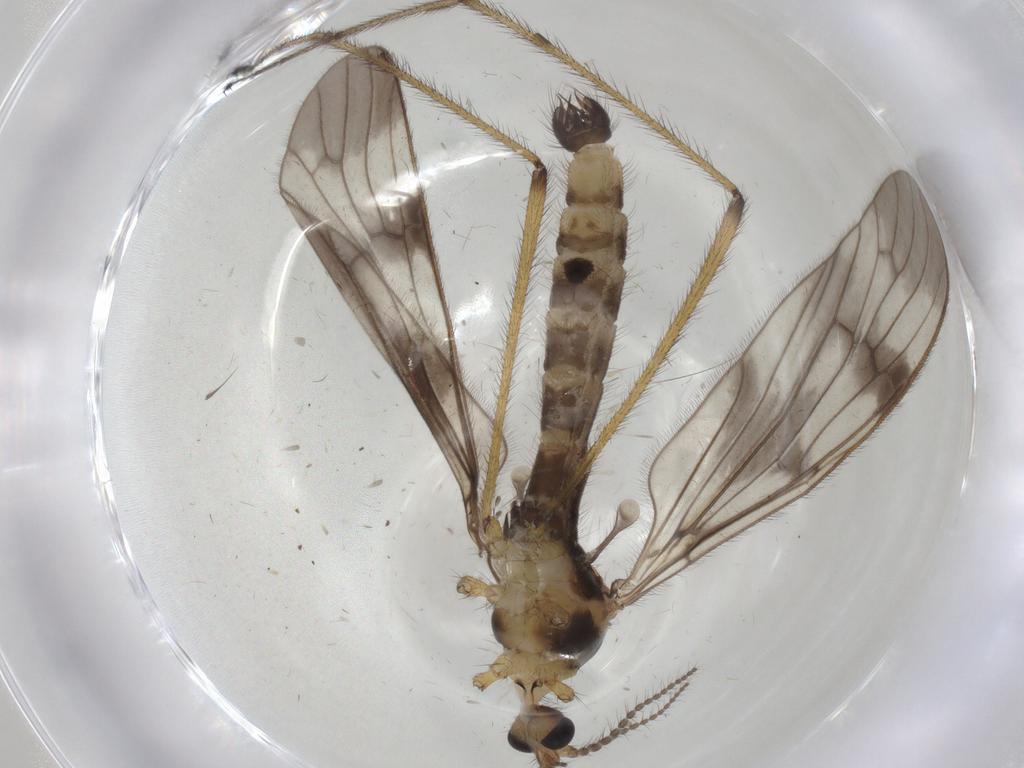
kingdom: Animalia
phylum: Arthropoda
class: Insecta
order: Diptera
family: Limoniidae
